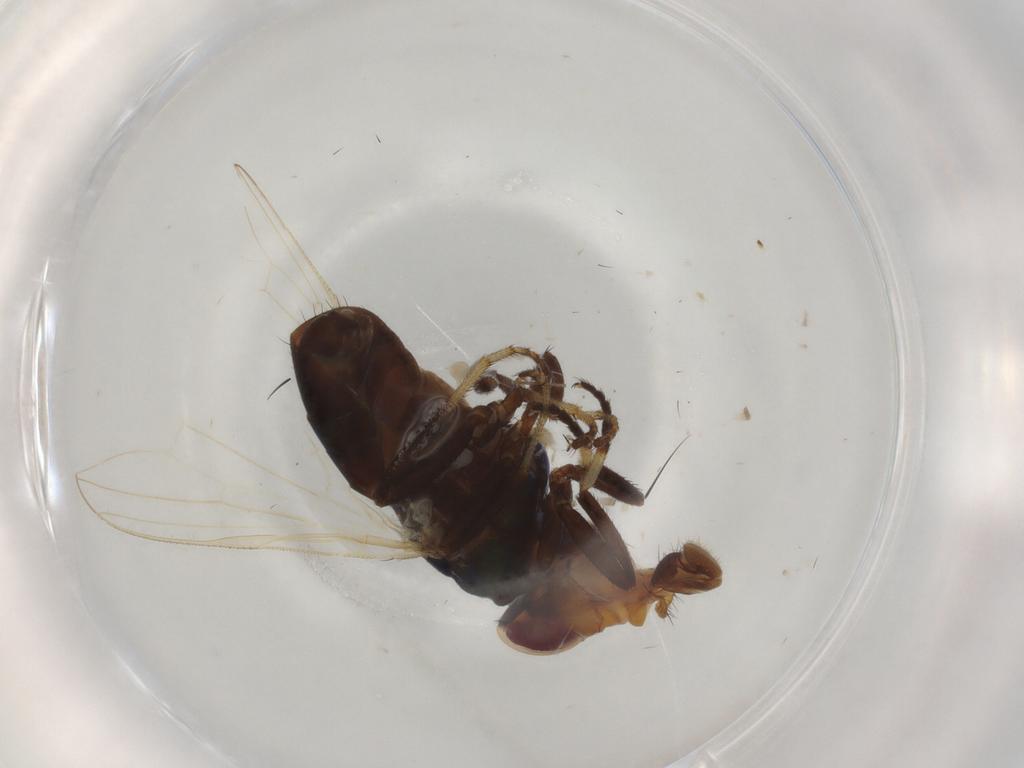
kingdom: Animalia
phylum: Arthropoda
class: Insecta
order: Diptera
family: Ulidiidae
